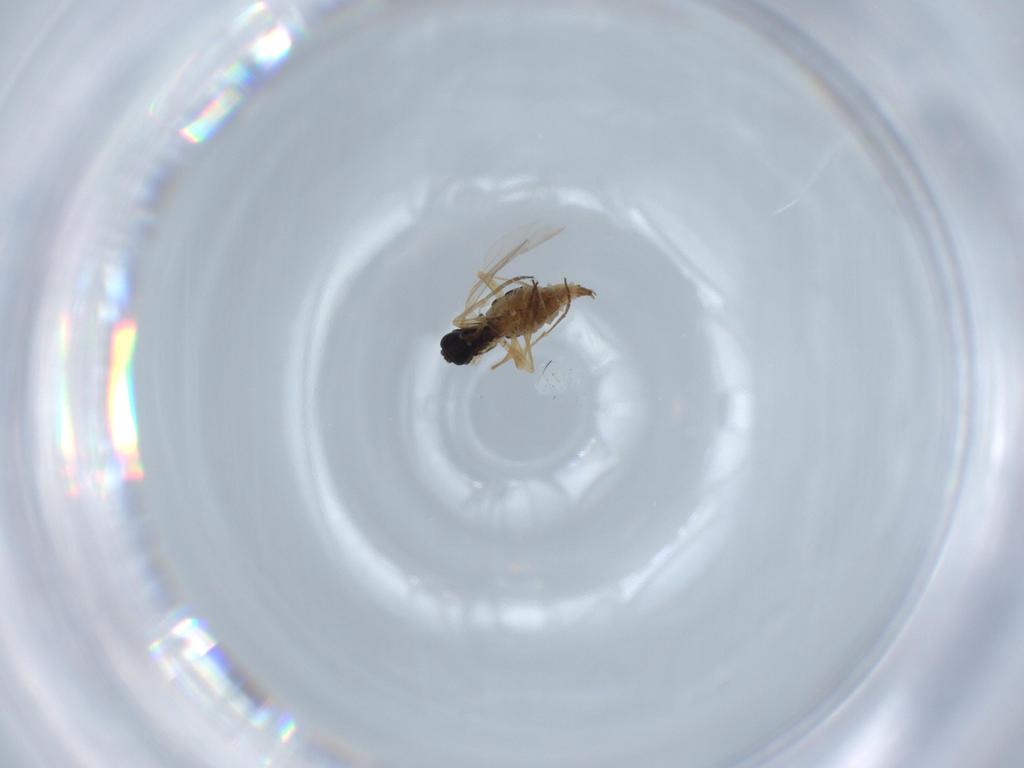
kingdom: Animalia
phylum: Arthropoda
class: Insecta
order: Diptera
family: Sciaridae
